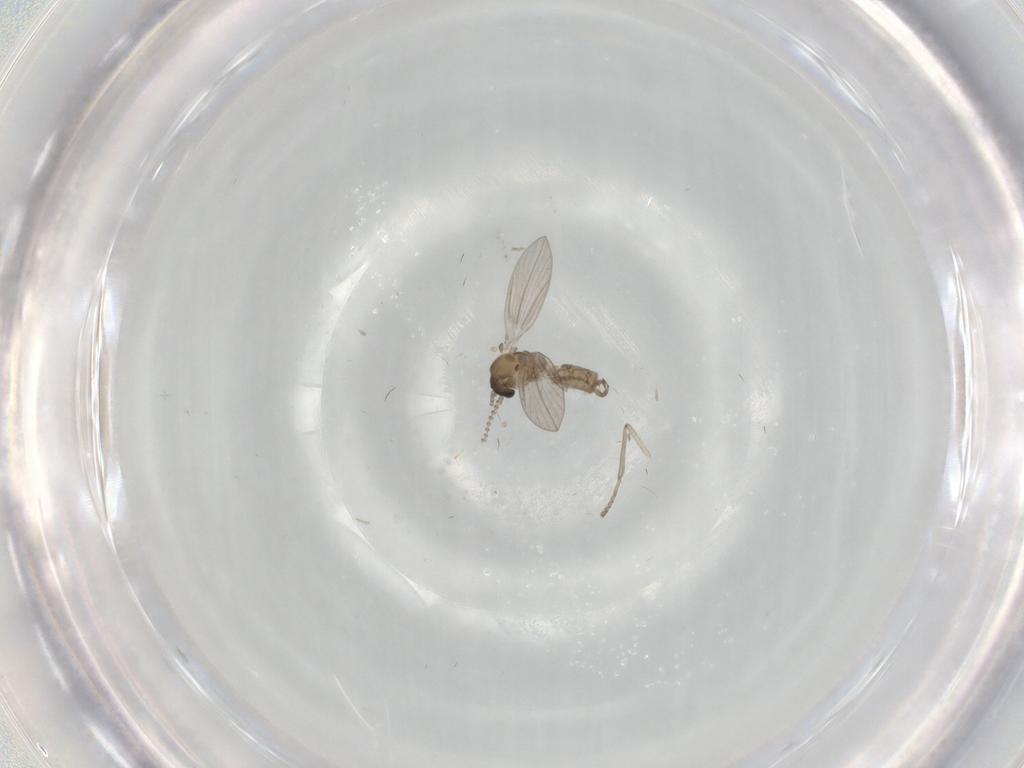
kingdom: Animalia
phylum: Arthropoda
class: Insecta
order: Diptera
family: Psychodidae
